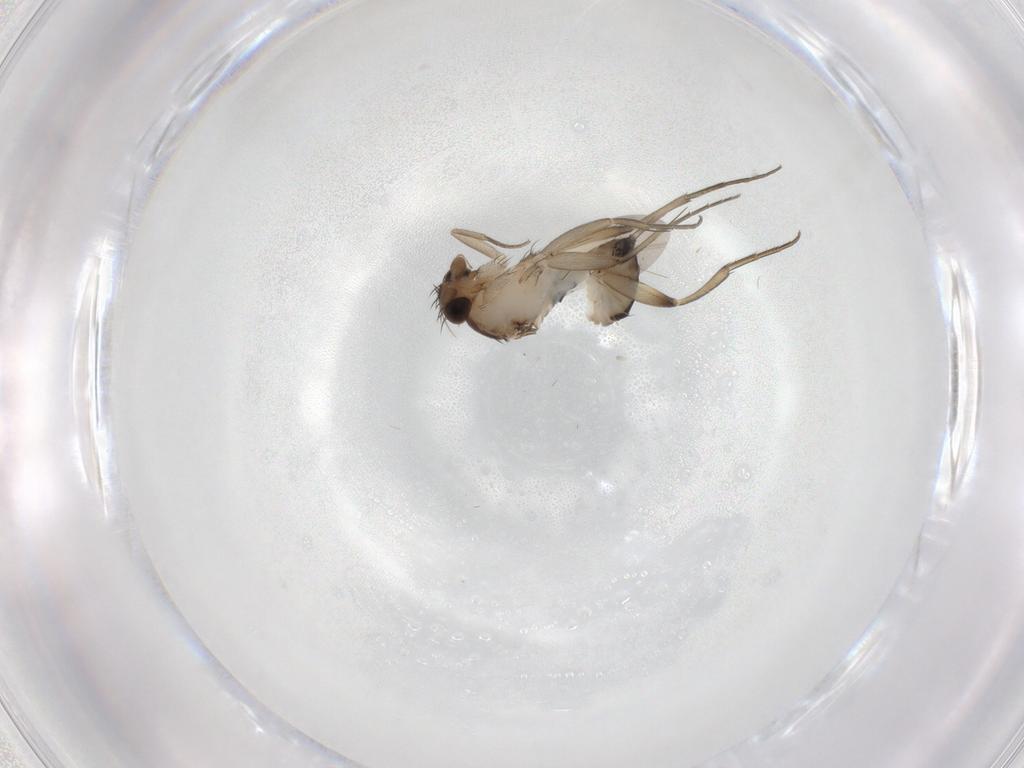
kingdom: Animalia
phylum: Arthropoda
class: Insecta
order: Diptera
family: Phoridae
